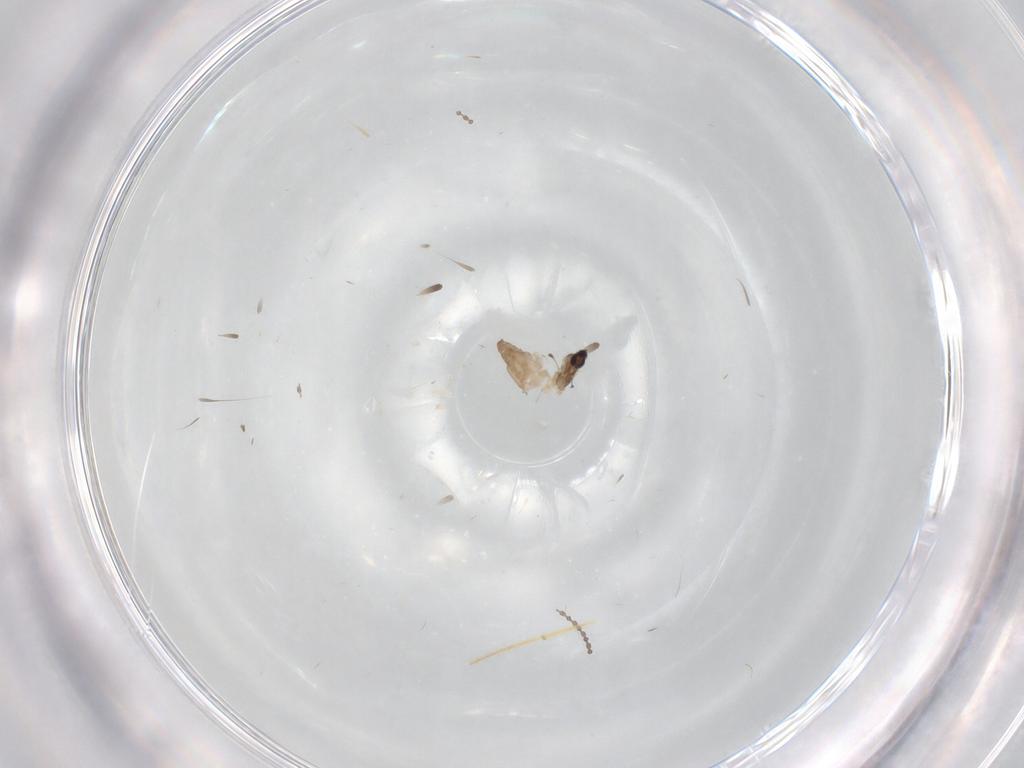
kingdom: Animalia
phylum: Arthropoda
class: Insecta
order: Diptera
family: Cecidomyiidae
